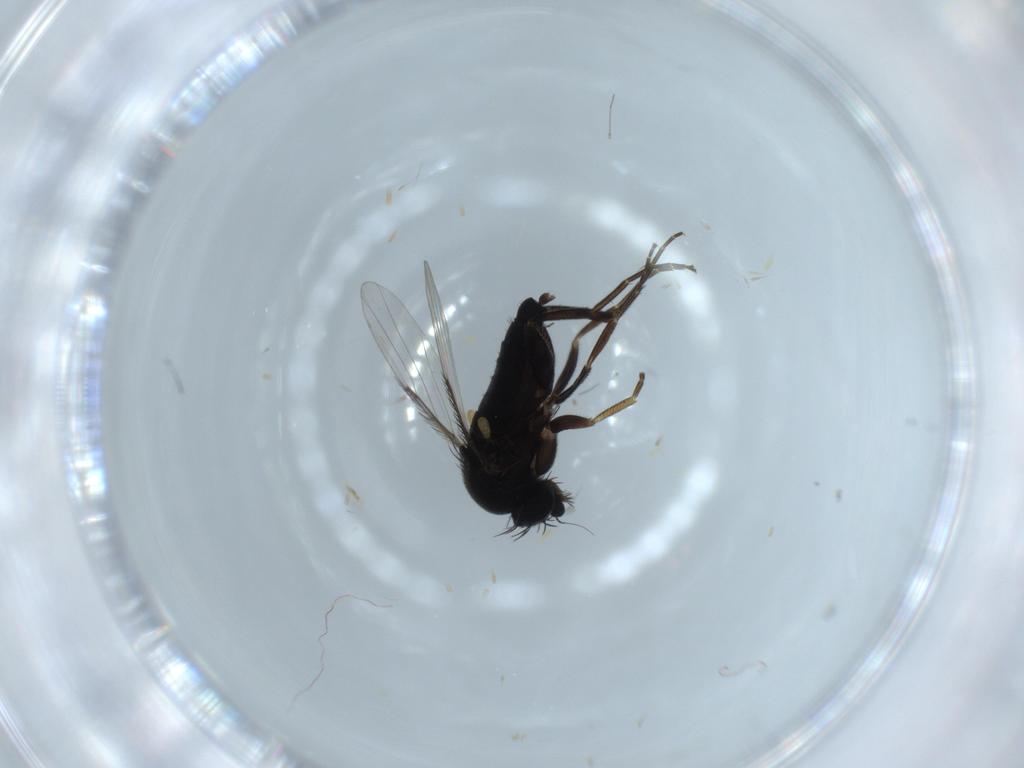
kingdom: Animalia
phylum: Arthropoda
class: Insecta
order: Diptera
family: Phoridae
